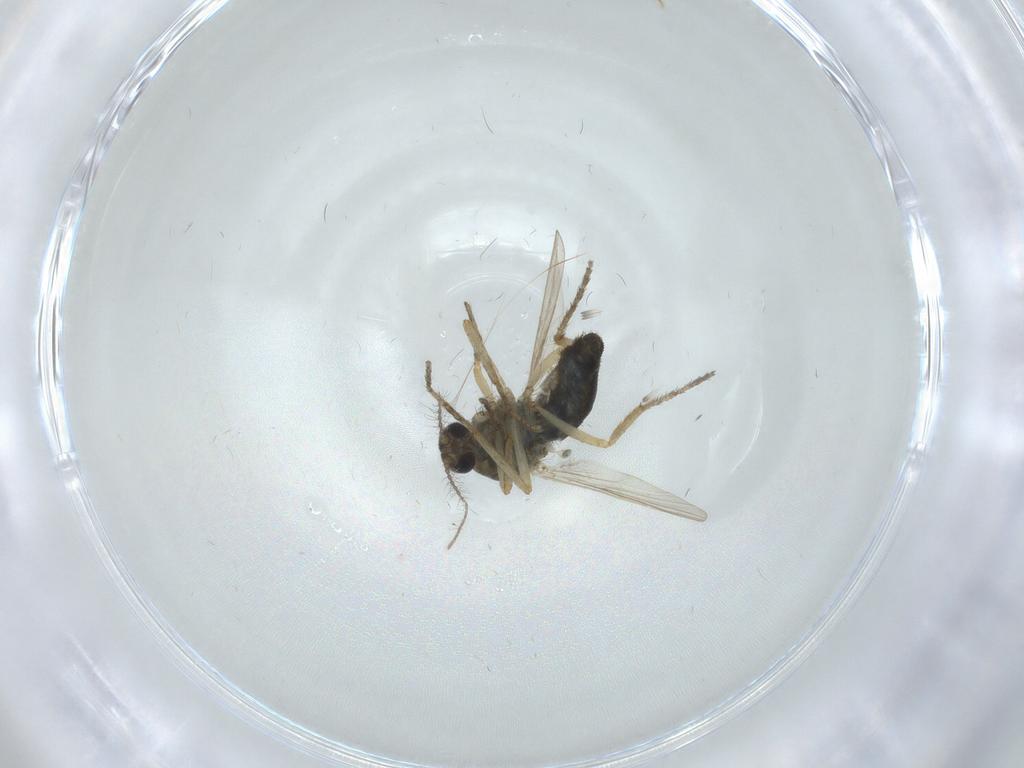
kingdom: Animalia
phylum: Arthropoda
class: Insecta
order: Diptera
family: Ceratopogonidae
